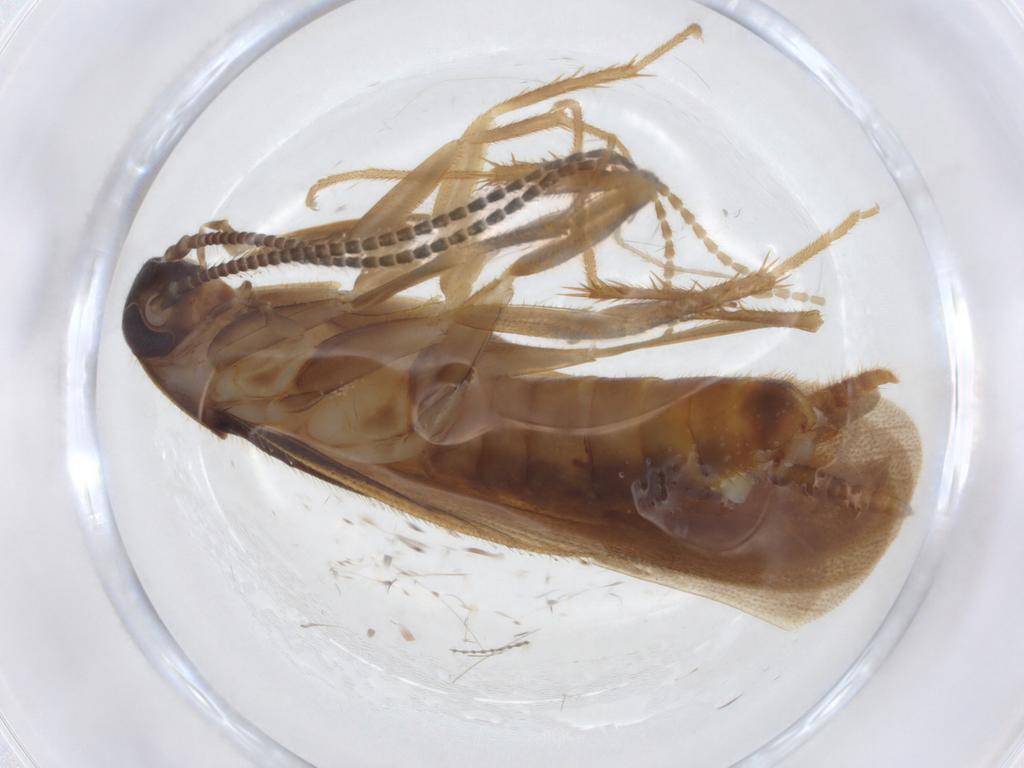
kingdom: Animalia
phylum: Arthropoda
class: Insecta
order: Blattodea
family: Ectobiidae
